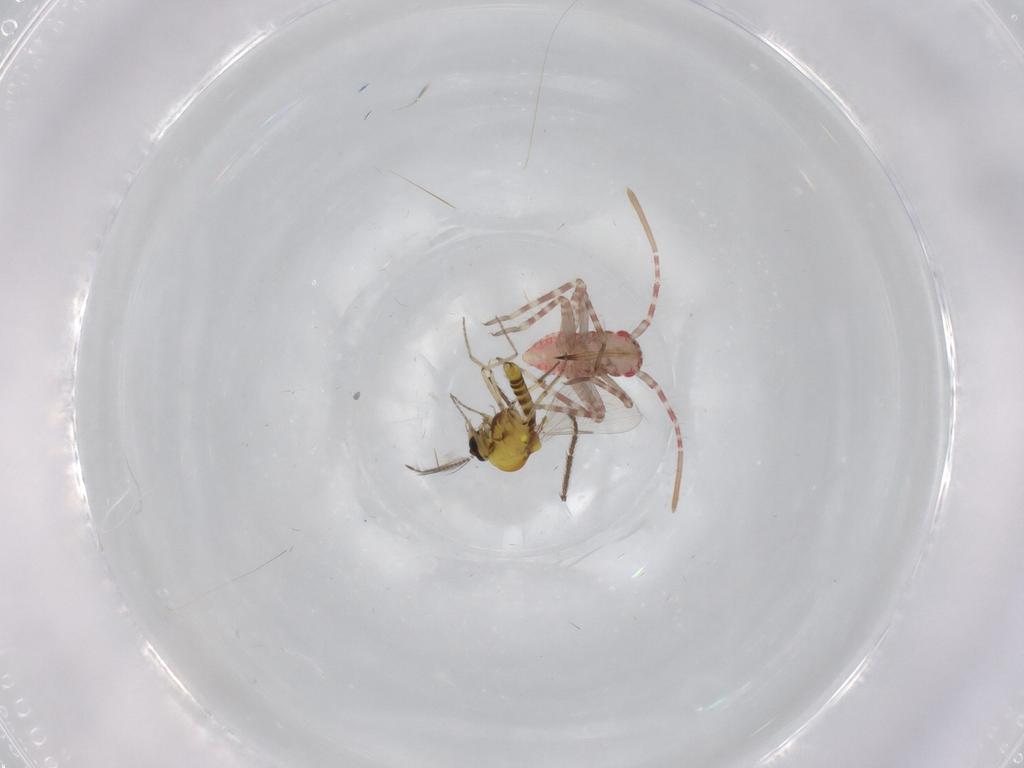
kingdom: Animalia
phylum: Arthropoda
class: Insecta
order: Diptera
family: Ceratopogonidae
